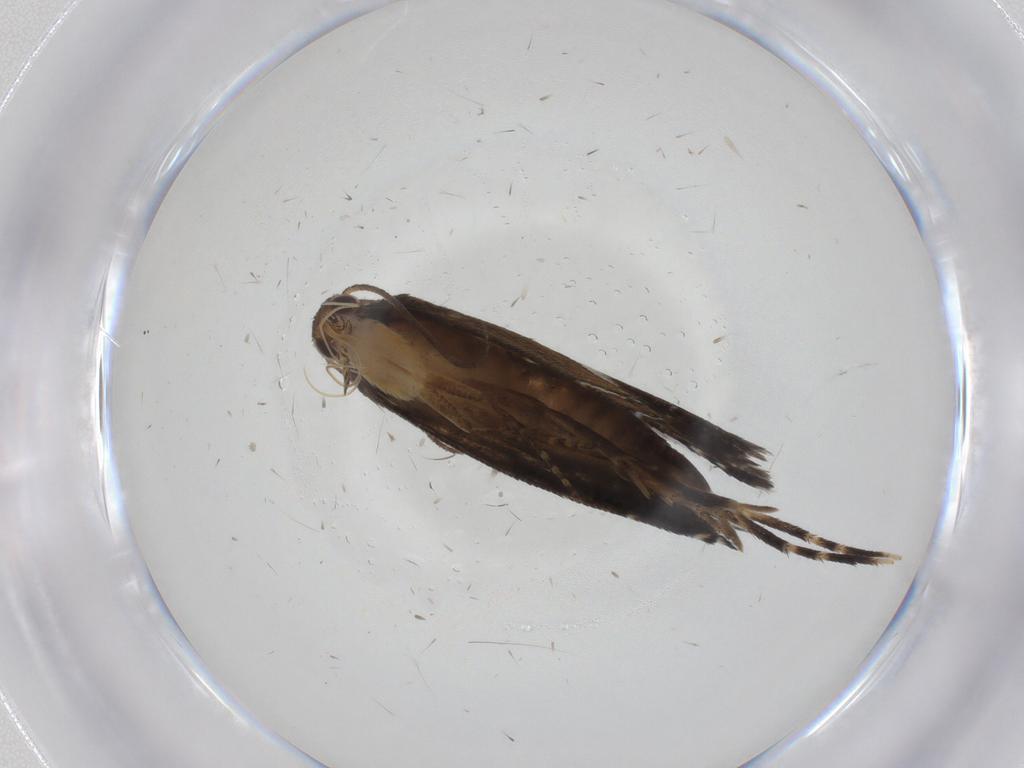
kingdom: Animalia
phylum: Arthropoda
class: Insecta
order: Lepidoptera
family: Glyphipterigidae
